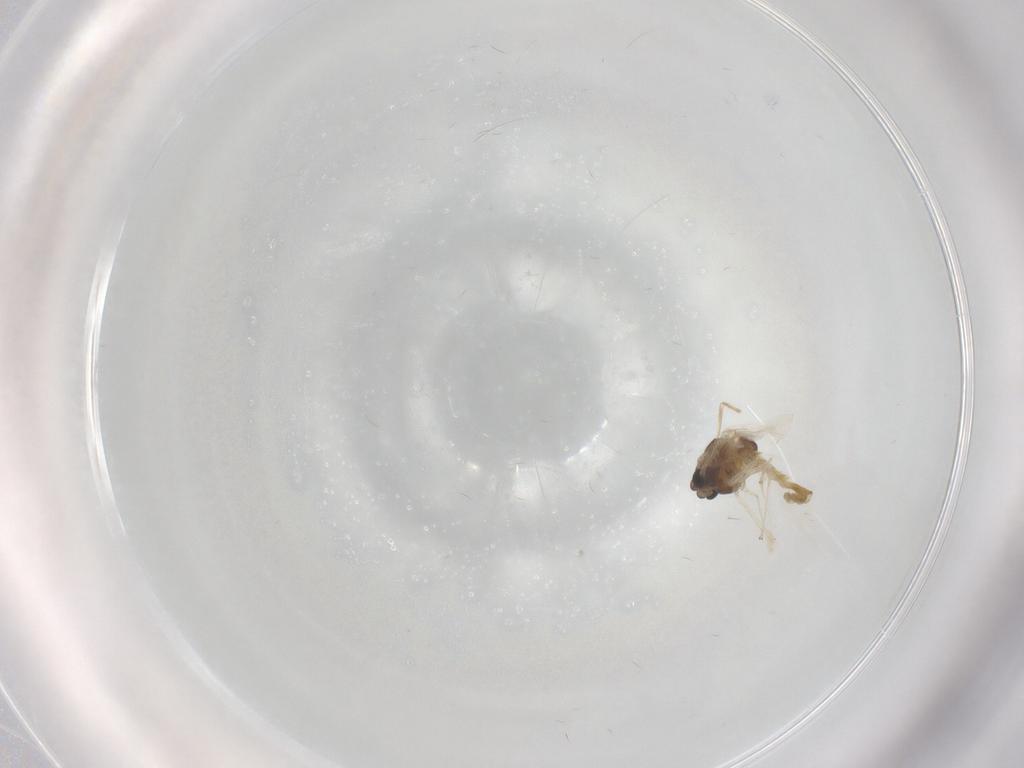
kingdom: Animalia
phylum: Arthropoda
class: Insecta
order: Diptera
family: Chironomidae
